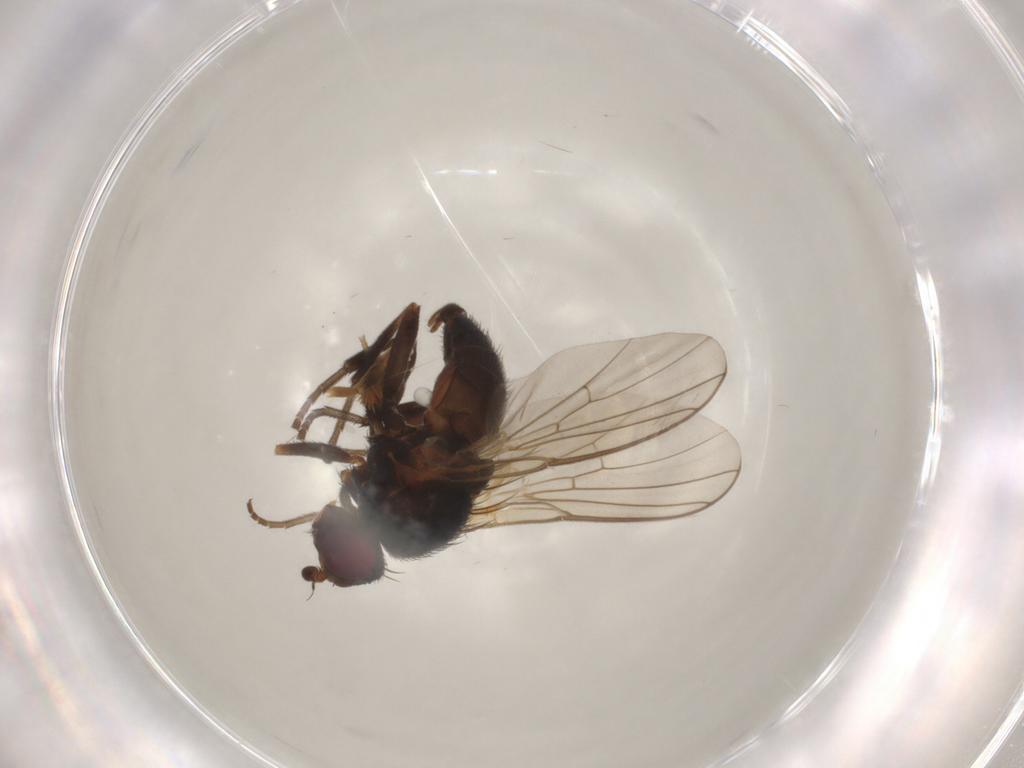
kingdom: Animalia
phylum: Arthropoda
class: Insecta
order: Diptera
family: Agromyzidae
